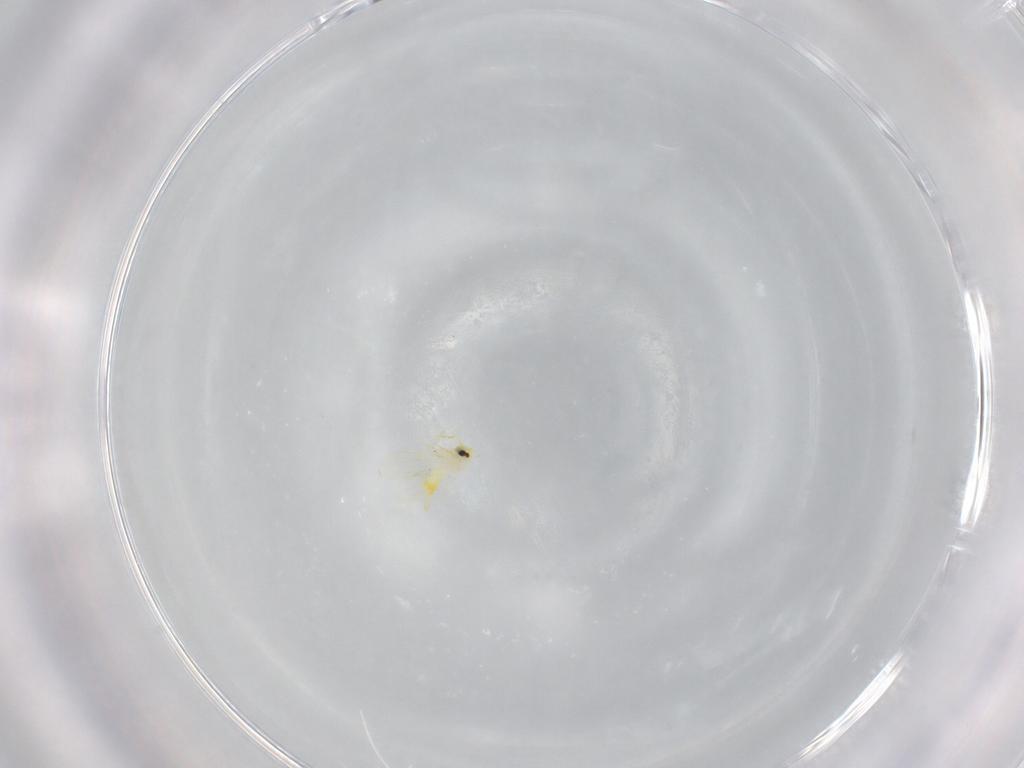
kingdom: Animalia
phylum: Arthropoda
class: Insecta
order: Hemiptera
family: Aleyrodidae
